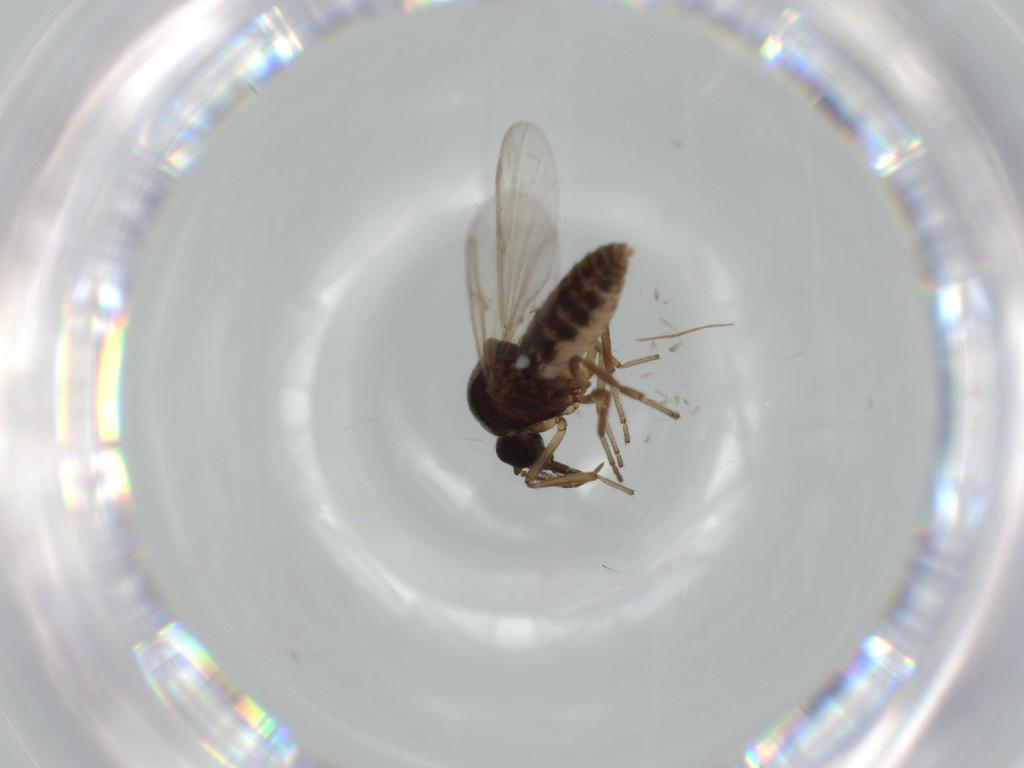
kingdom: Animalia
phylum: Arthropoda
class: Insecta
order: Diptera
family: Ceratopogonidae
